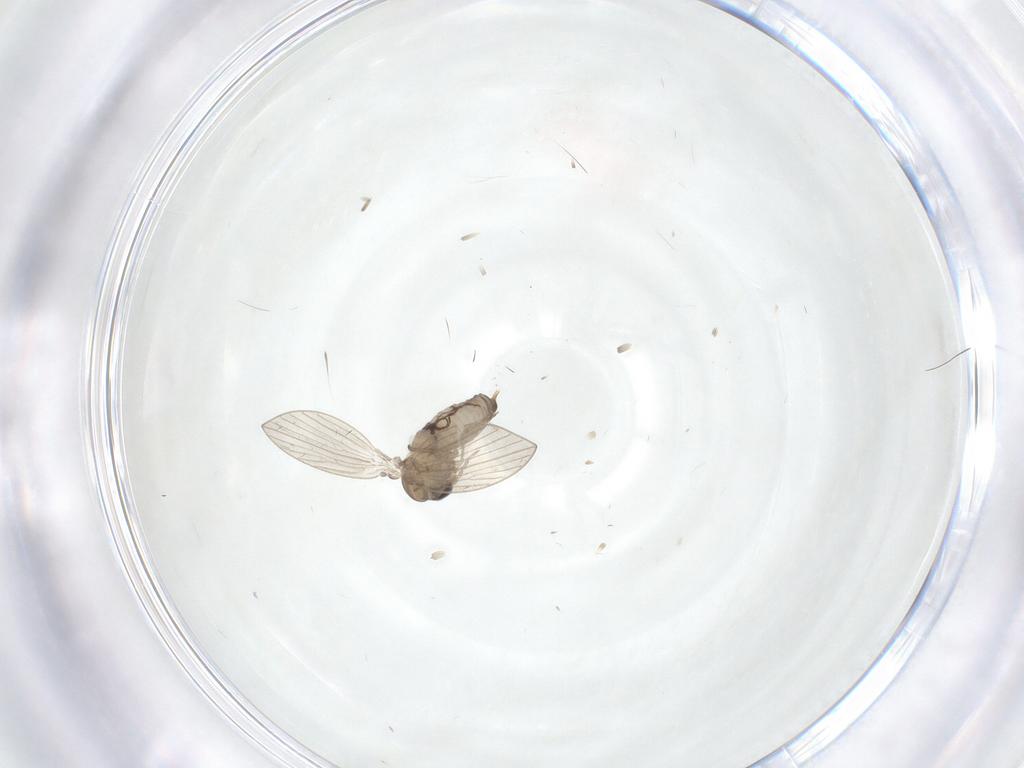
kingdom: Animalia
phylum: Arthropoda
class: Insecta
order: Diptera
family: Psychodidae
